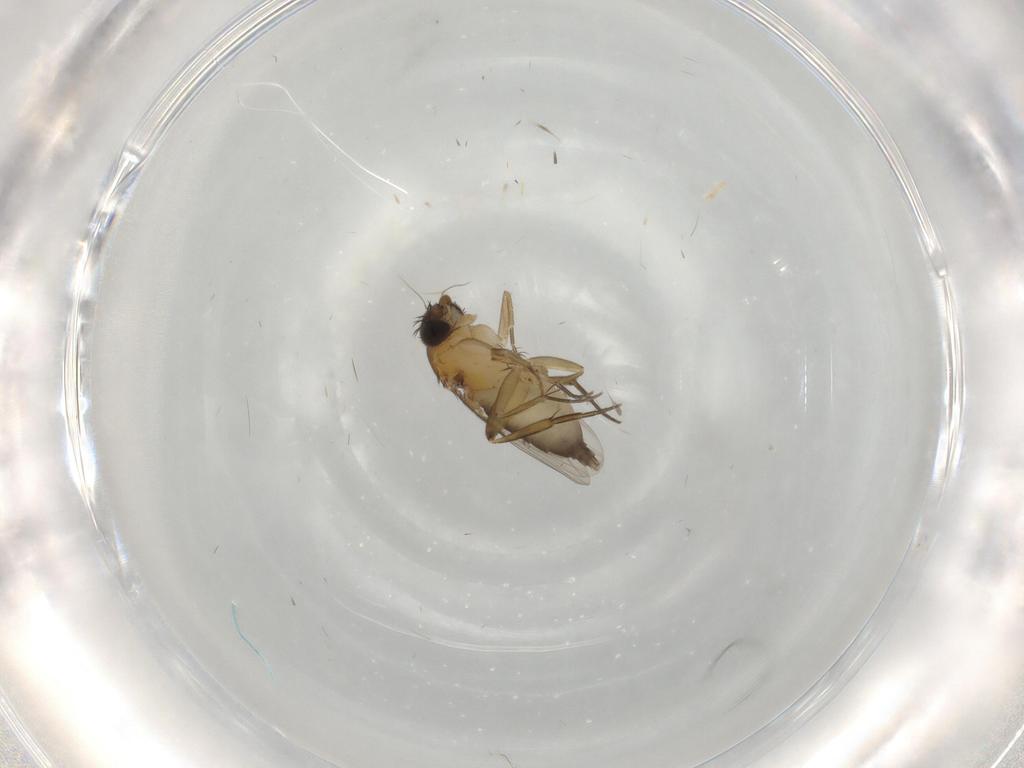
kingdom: Animalia
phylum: Arthropoda
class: Insecta
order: Diptera
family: Phoridae
